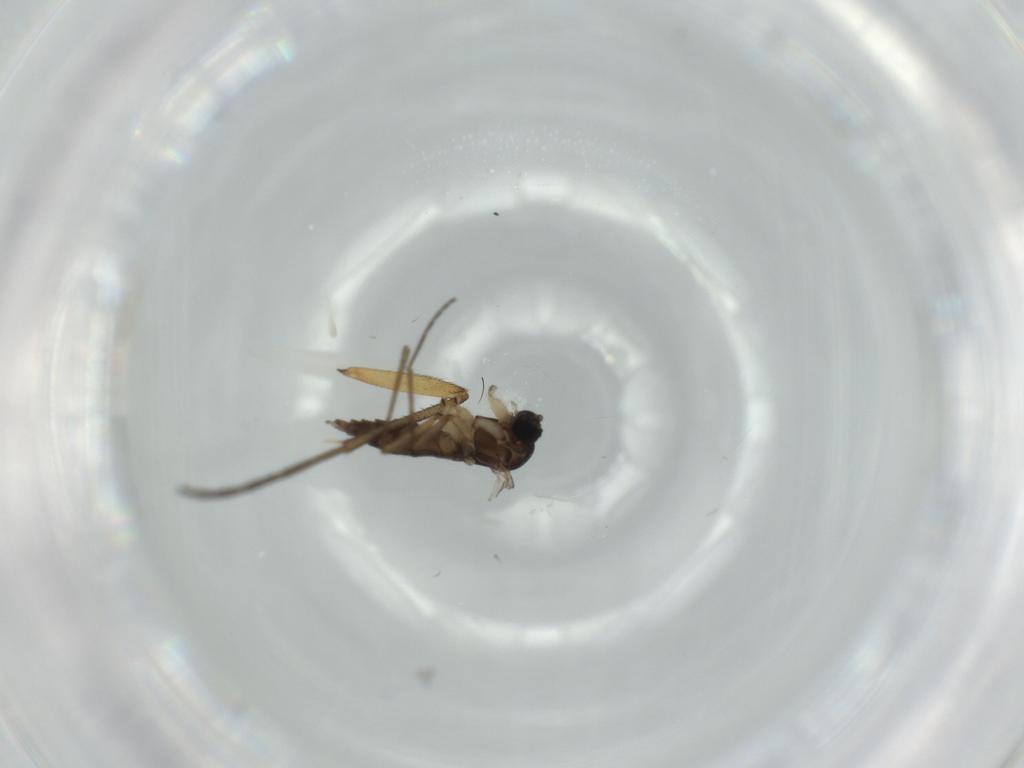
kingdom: Animalia
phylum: Arthropoda
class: Insecta
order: Diptera
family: Sciaridae
